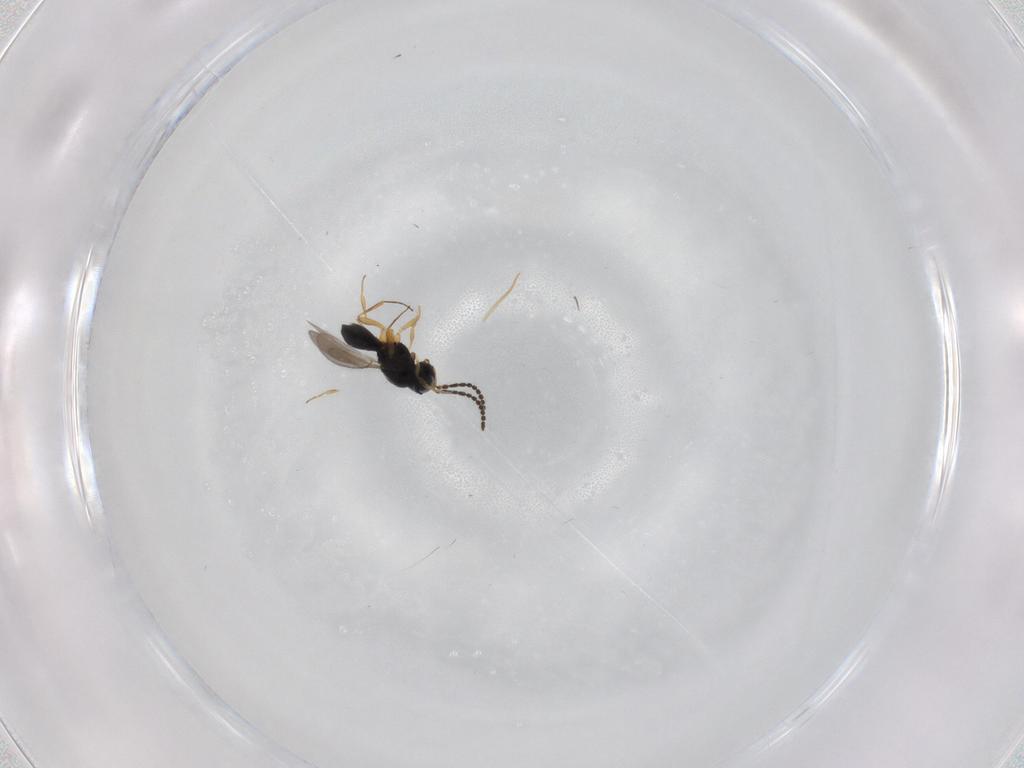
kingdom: Animalia
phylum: Arthropoda
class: Insecta
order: Hymenoptera
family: Scelionidae
